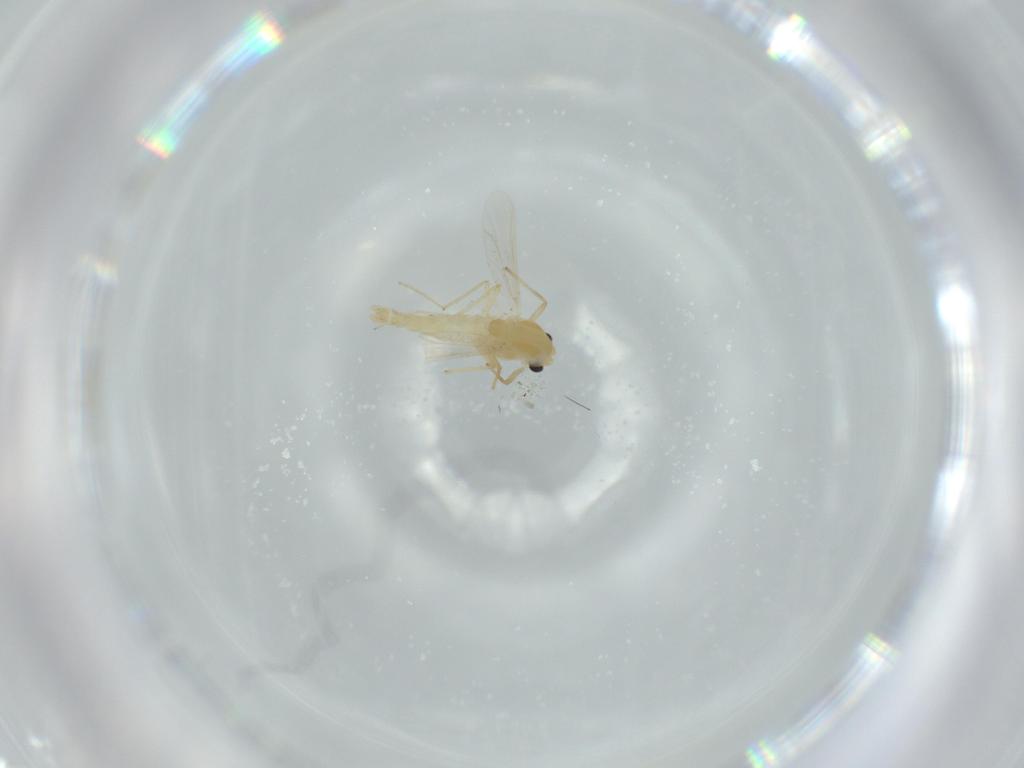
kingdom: Animalia
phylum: Arthropoda
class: Insecta
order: Diptera
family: Chironomidae
